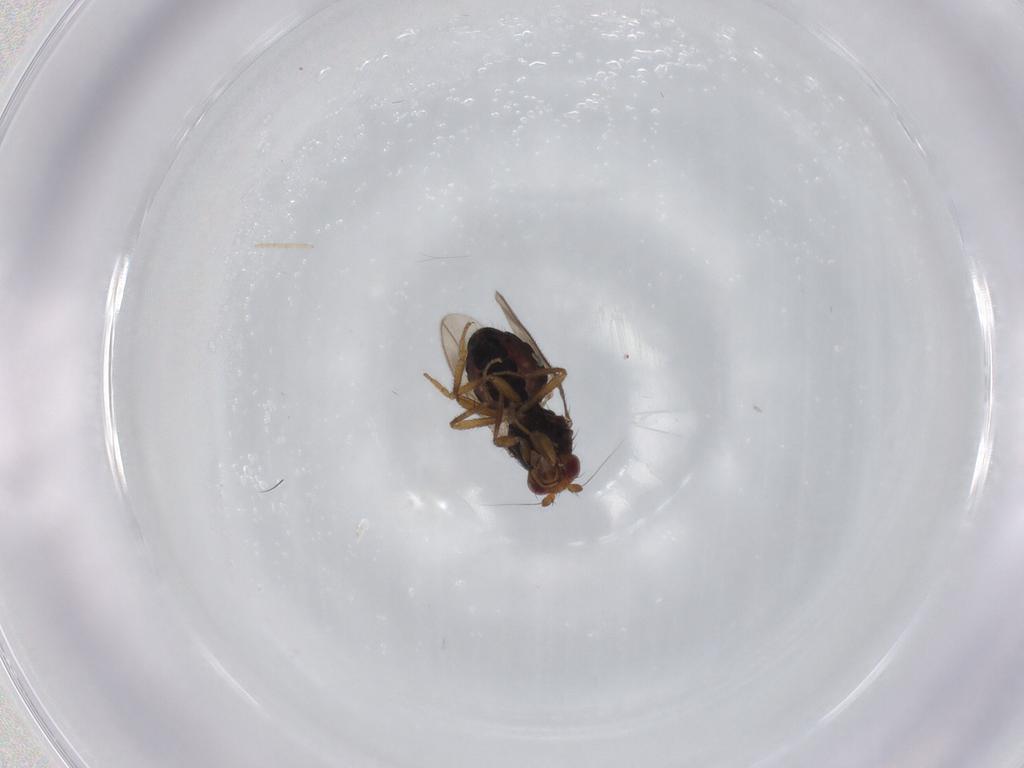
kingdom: Animalia
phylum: Arthropoda
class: Insecta
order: Diptera
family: Sphaeroceridae
